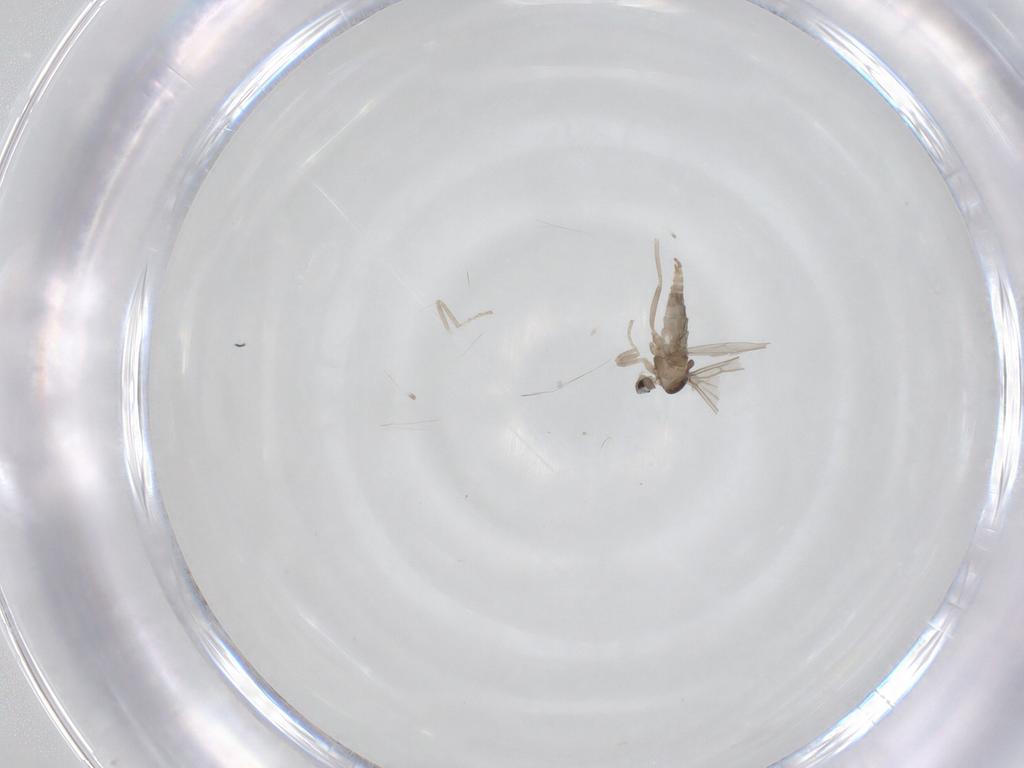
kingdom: Animalia
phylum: Arthropoda
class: Insecta
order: Diptera
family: Cecidomyiidae
